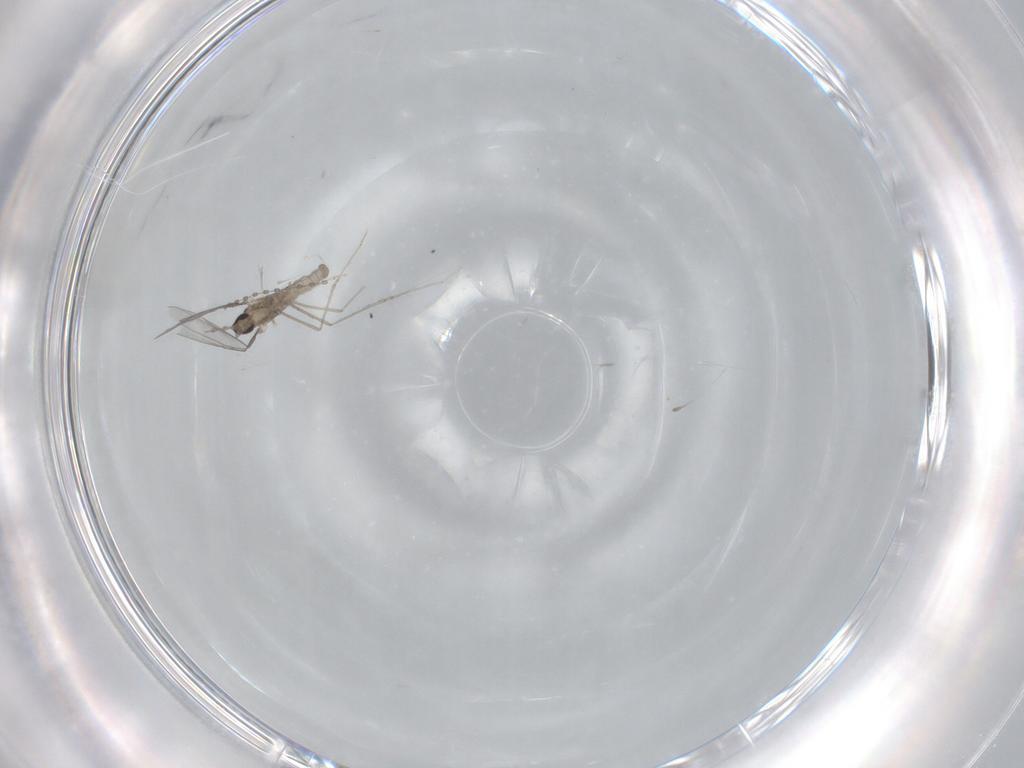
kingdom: Animalia
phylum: Arthropoda
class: Insecta
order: Diptera
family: Cecidomyiidae
